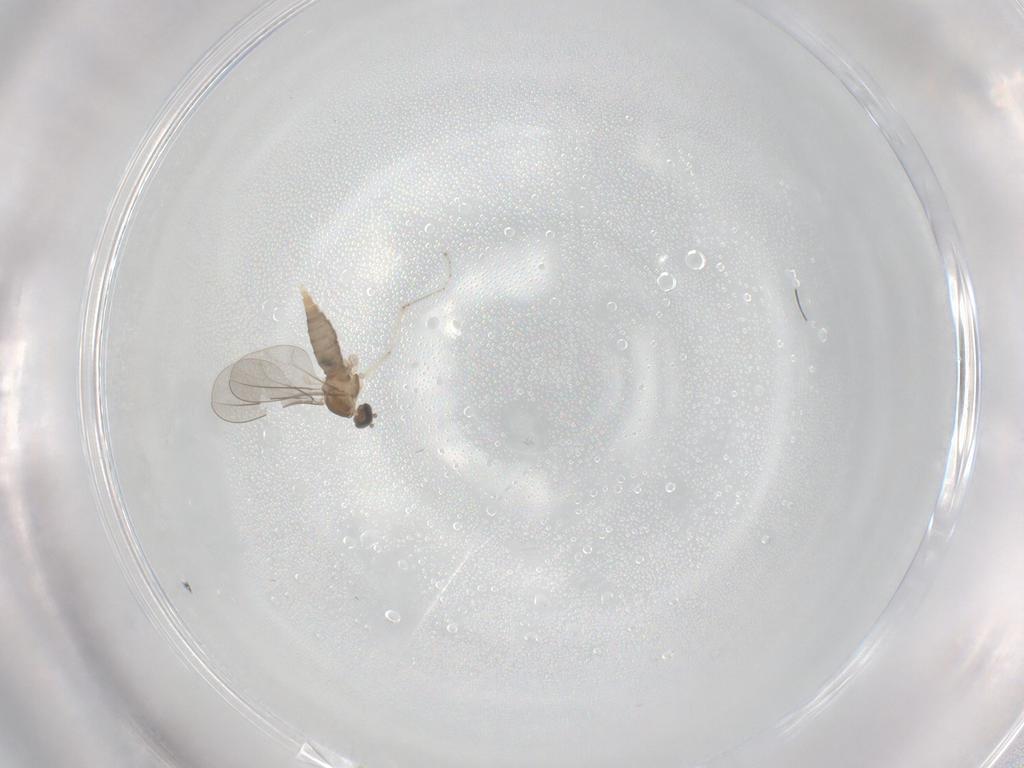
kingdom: Animalia
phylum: Arthropoda
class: Insecta
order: Diptera
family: Cecidomyiidae
